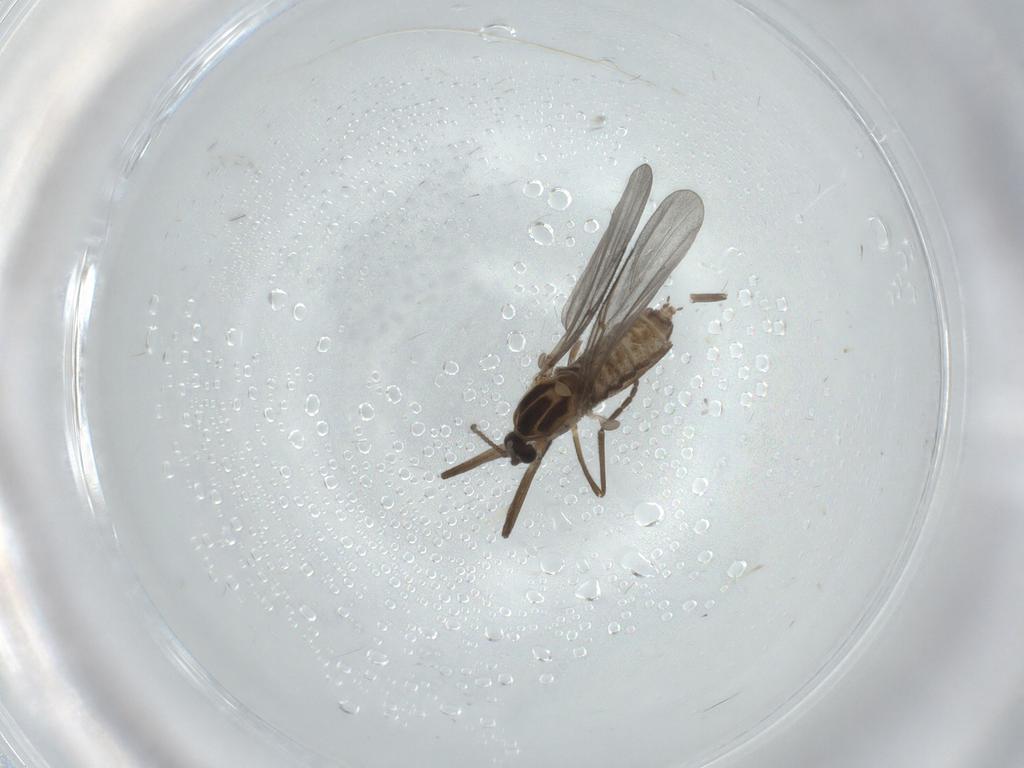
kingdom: Animalia
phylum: Arthropoda
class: Insecta
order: Diptera
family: Cecidomyiidae
